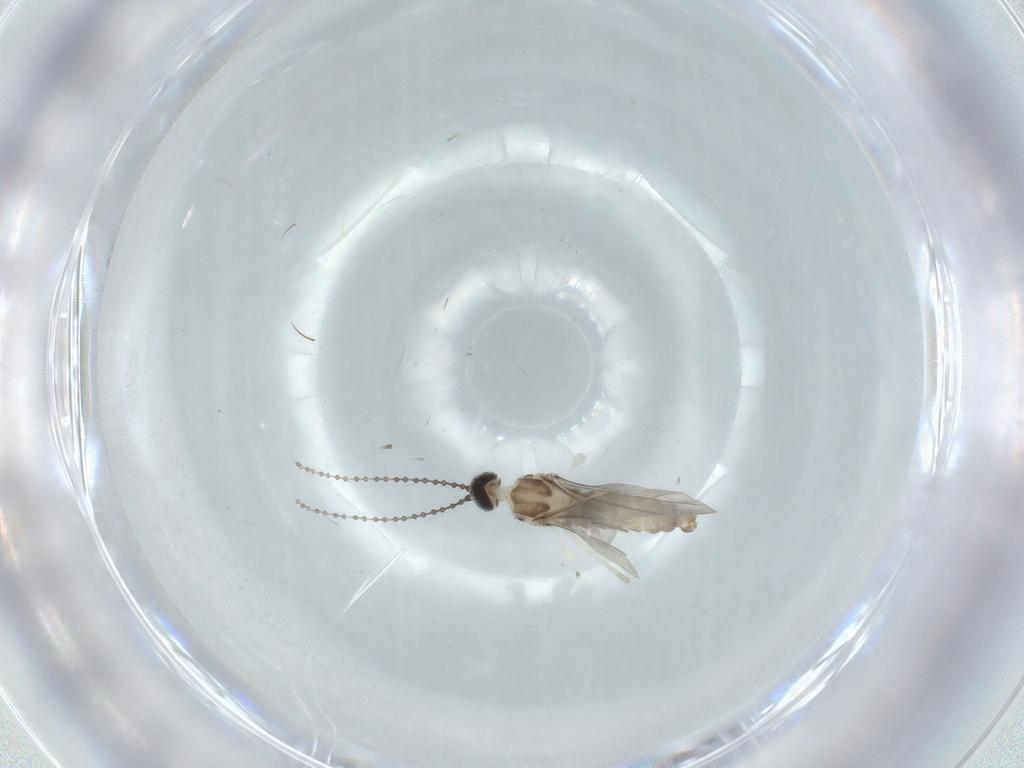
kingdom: Animalia
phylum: Arthropoda
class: Insecta
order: Diptera
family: Cecidomyiidae
